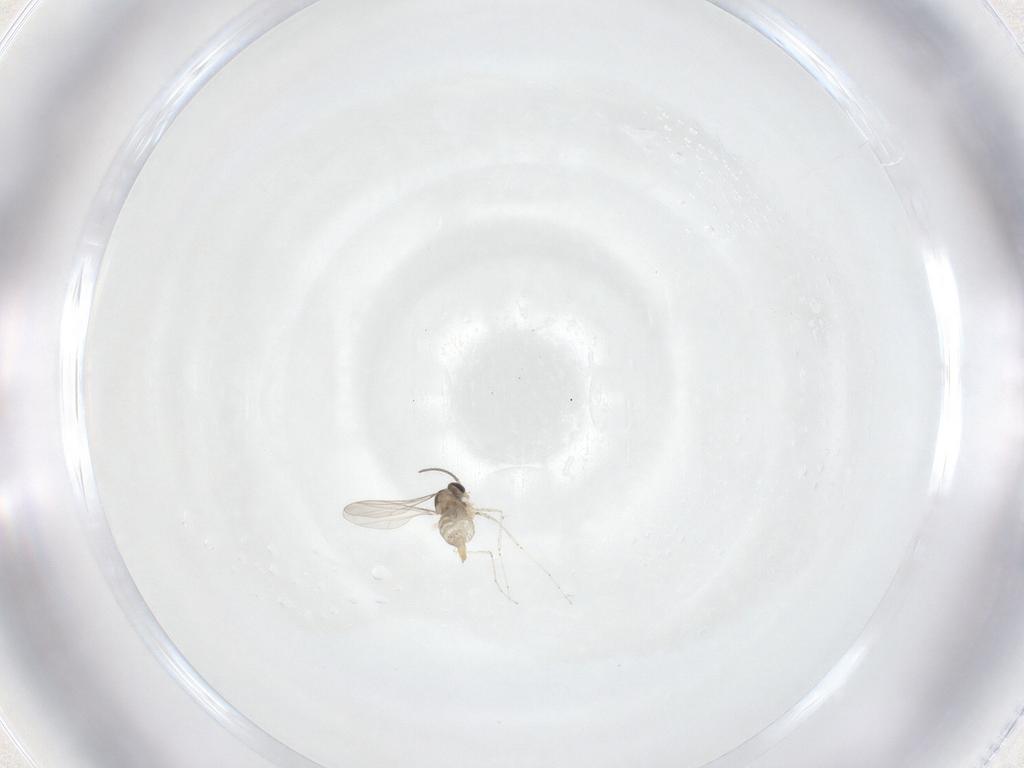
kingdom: Animalia
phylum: Arthropoda
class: Insecta
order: Diptera
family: Cecidomyiidae
